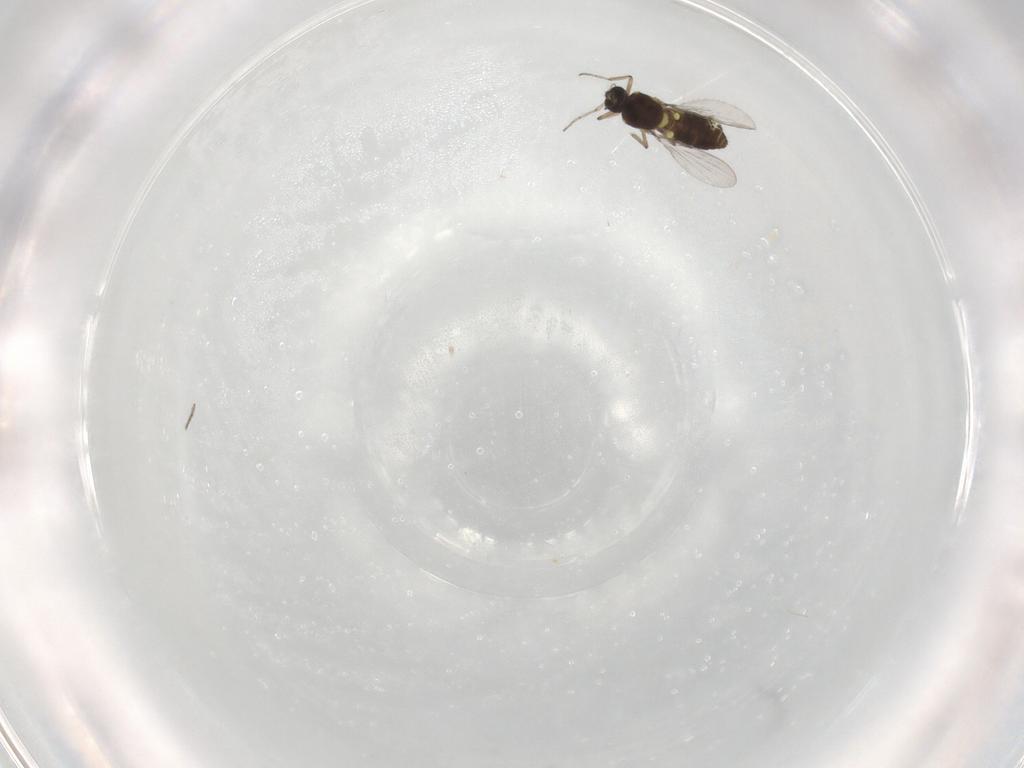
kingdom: Animalia
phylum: Arthropoda
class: Insecta
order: Diptera
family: Ceratopogonidae
